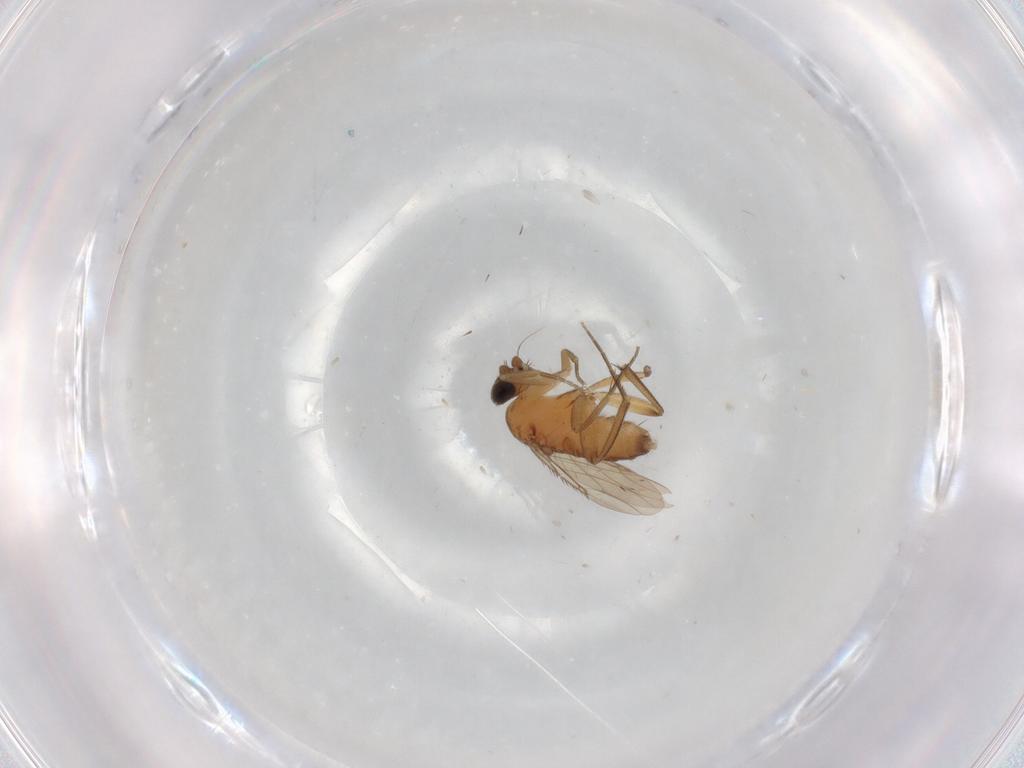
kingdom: Animalia
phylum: Arthropoda
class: Insecta
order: Diptera
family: Phoridae
